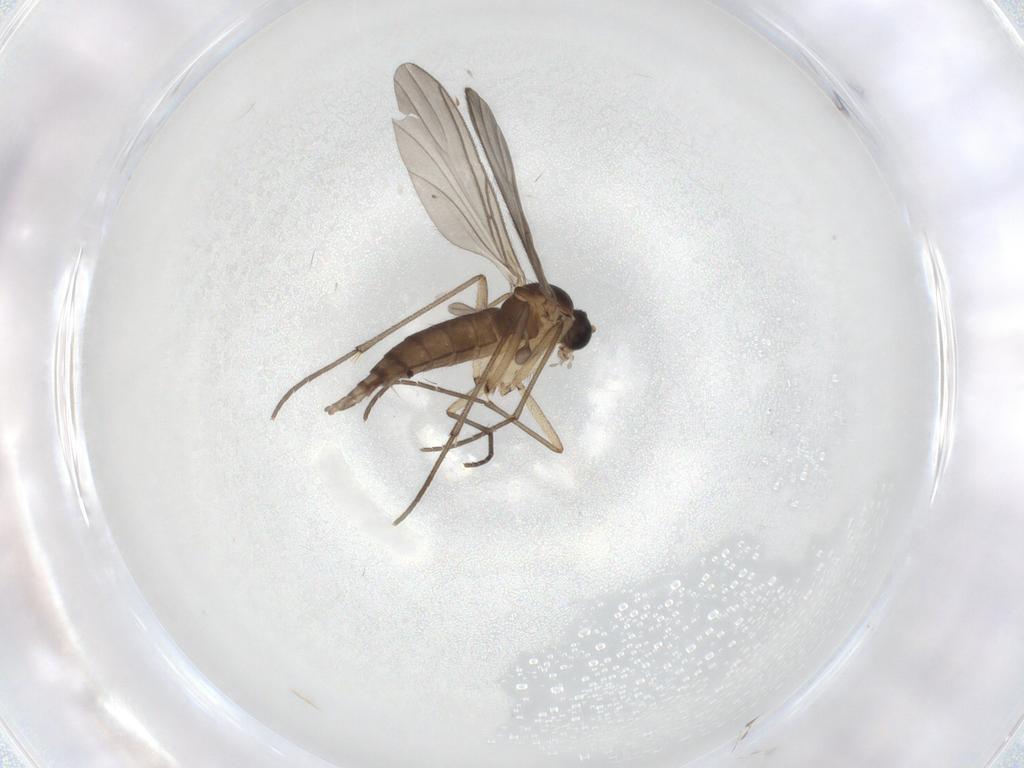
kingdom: Animalia
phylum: Arthropoda
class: Insecta
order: Diptera
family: Sciaridae
